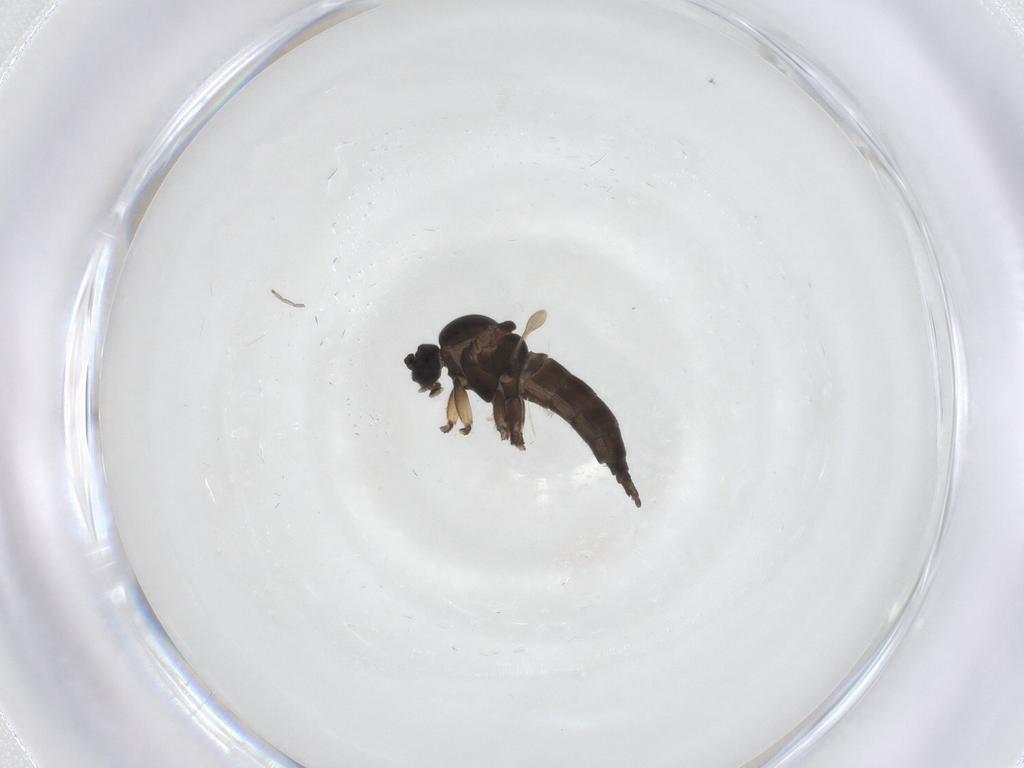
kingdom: Animalia
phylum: Arthropoda
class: Insecta
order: Diptera
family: Sciaridae
